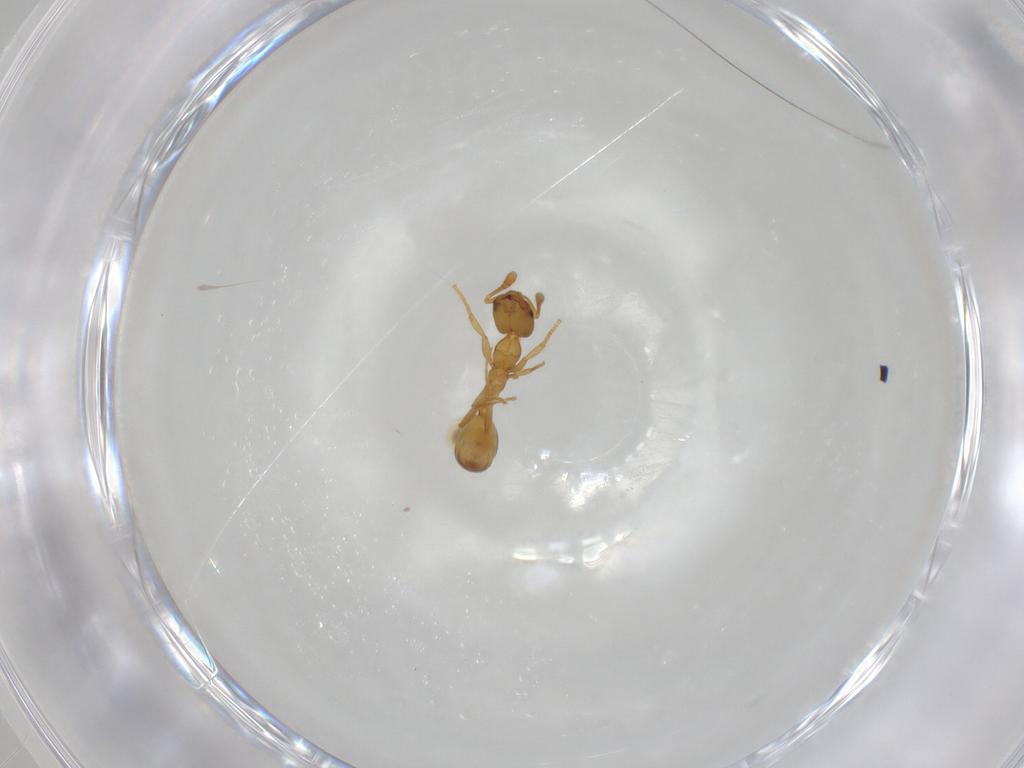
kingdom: Animalia
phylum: Arthropoda
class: Insecta
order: Hymenoptera
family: Formicidae
